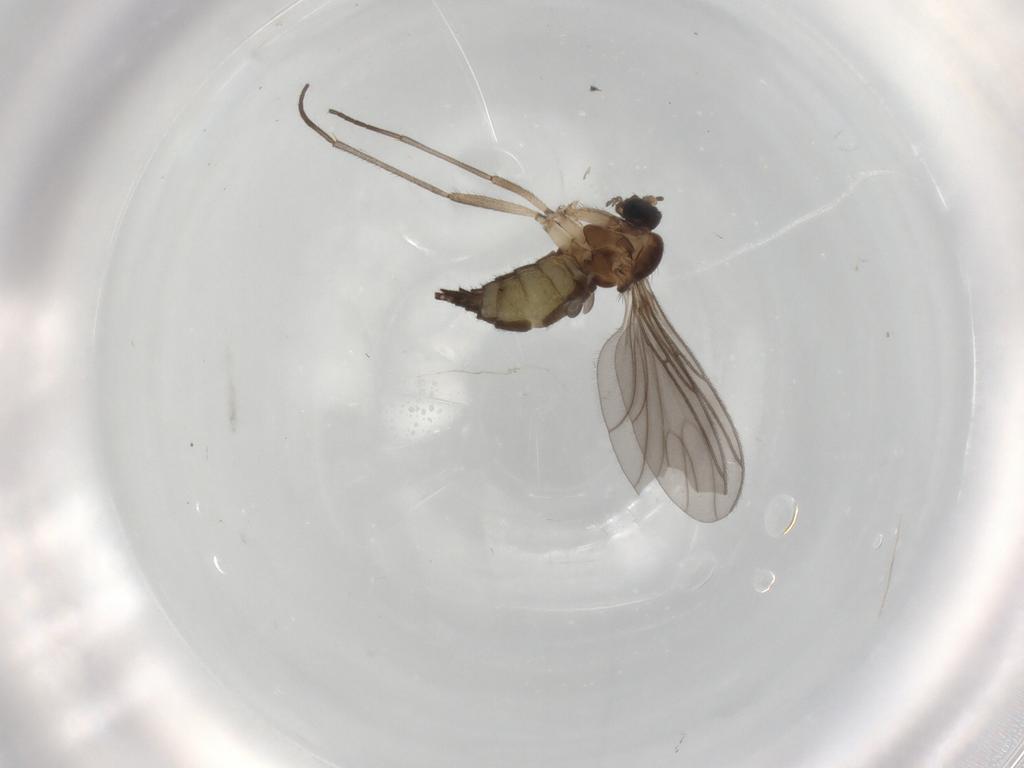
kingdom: Animalia
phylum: Arthropoda
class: Insecta
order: Diptera
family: Sciaridae
